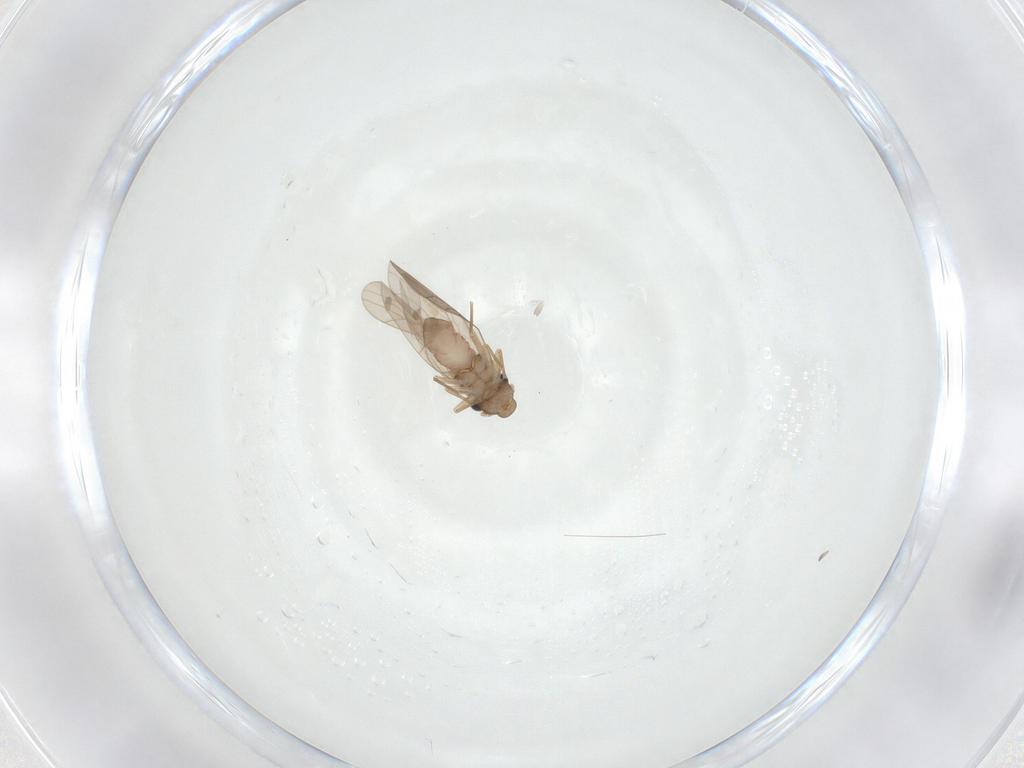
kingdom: Animalia
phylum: Arthropoda
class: Insecta
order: Psocodea
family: Lepidopsocidae
